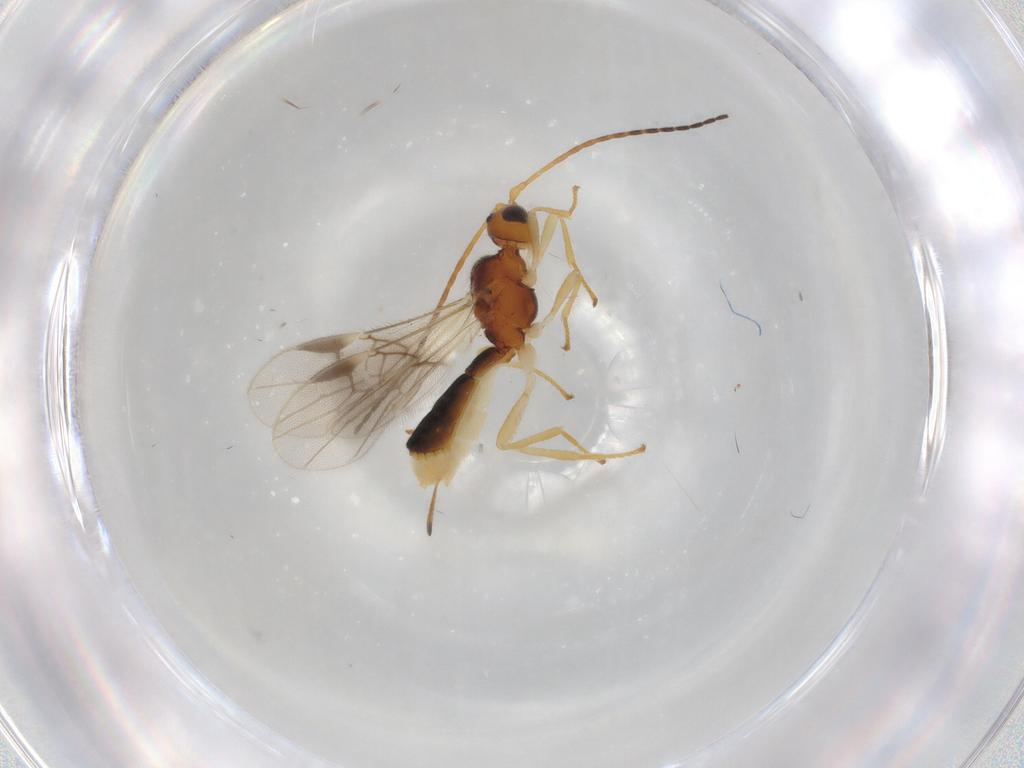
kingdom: Animalia
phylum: Arthropoda
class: Insecta
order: Hymenoptera
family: Braconidae
